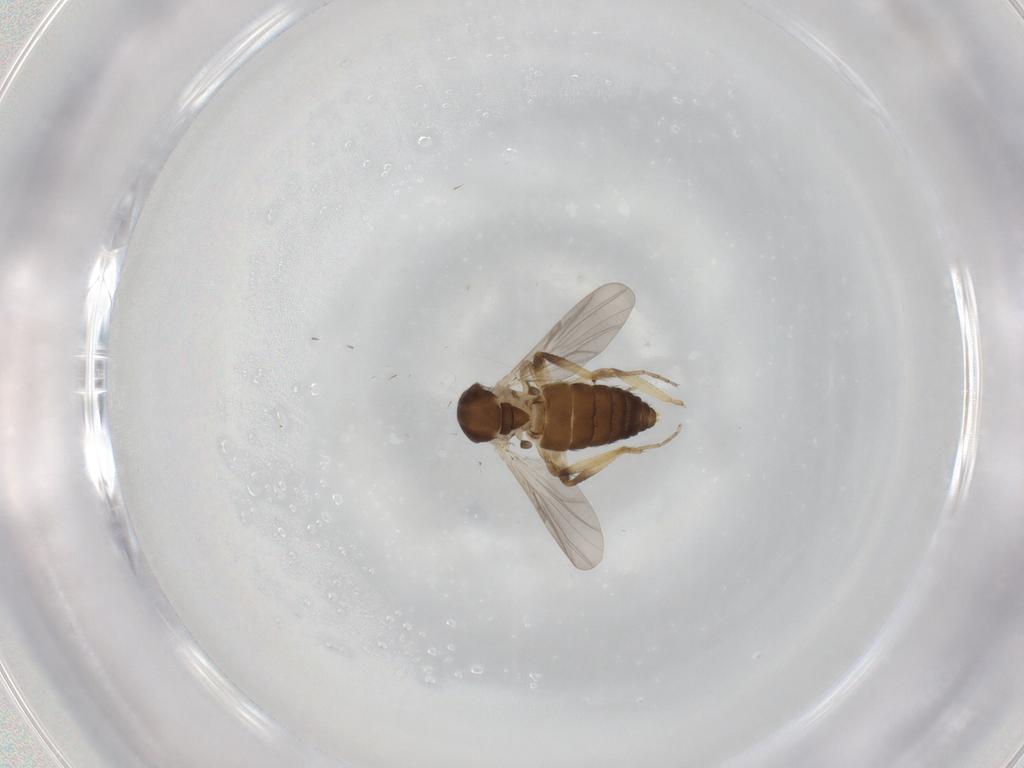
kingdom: Animalia
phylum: Arthropoda
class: Insecta
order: Diptera
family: Ceratopogonidae
